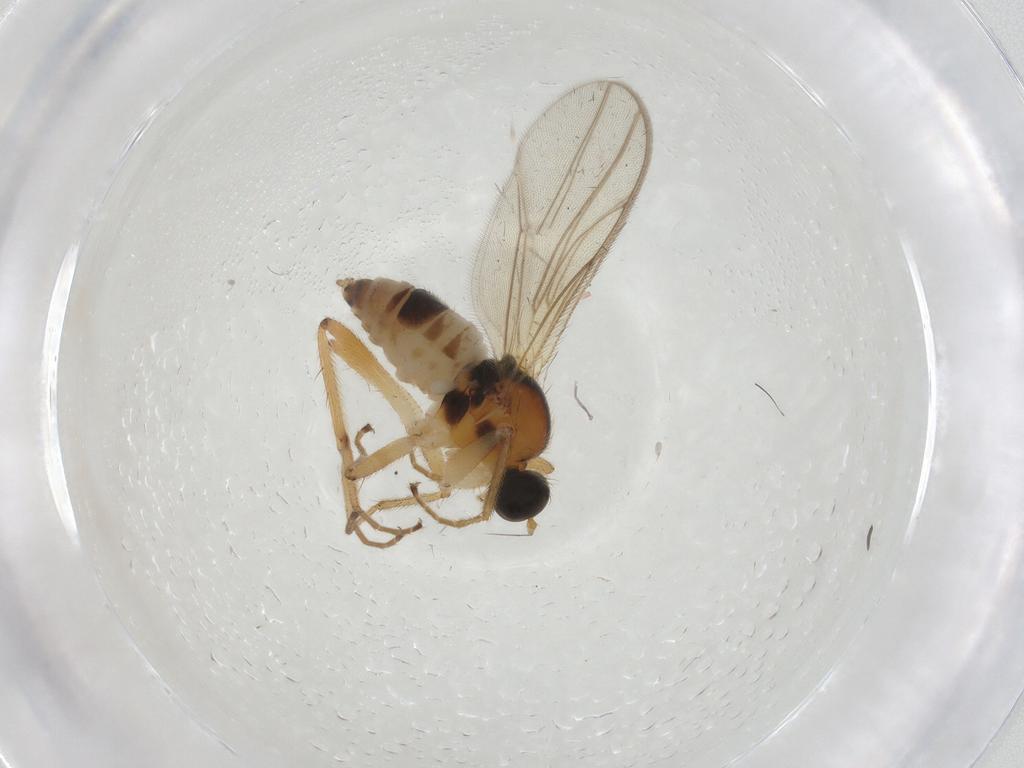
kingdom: Animalia
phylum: Arthropoda
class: Insecta
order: Diptera
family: Hybotidae
